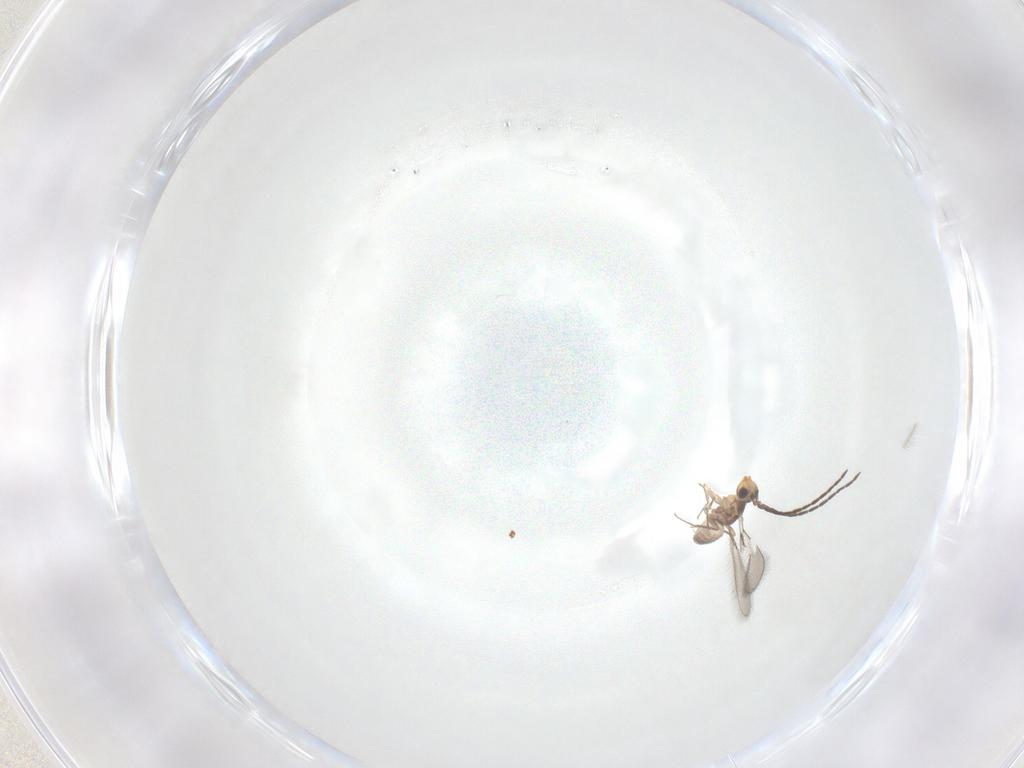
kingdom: Animalia
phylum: Arthropoda
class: Insecta
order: Hymenoptera
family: Mymaridae
